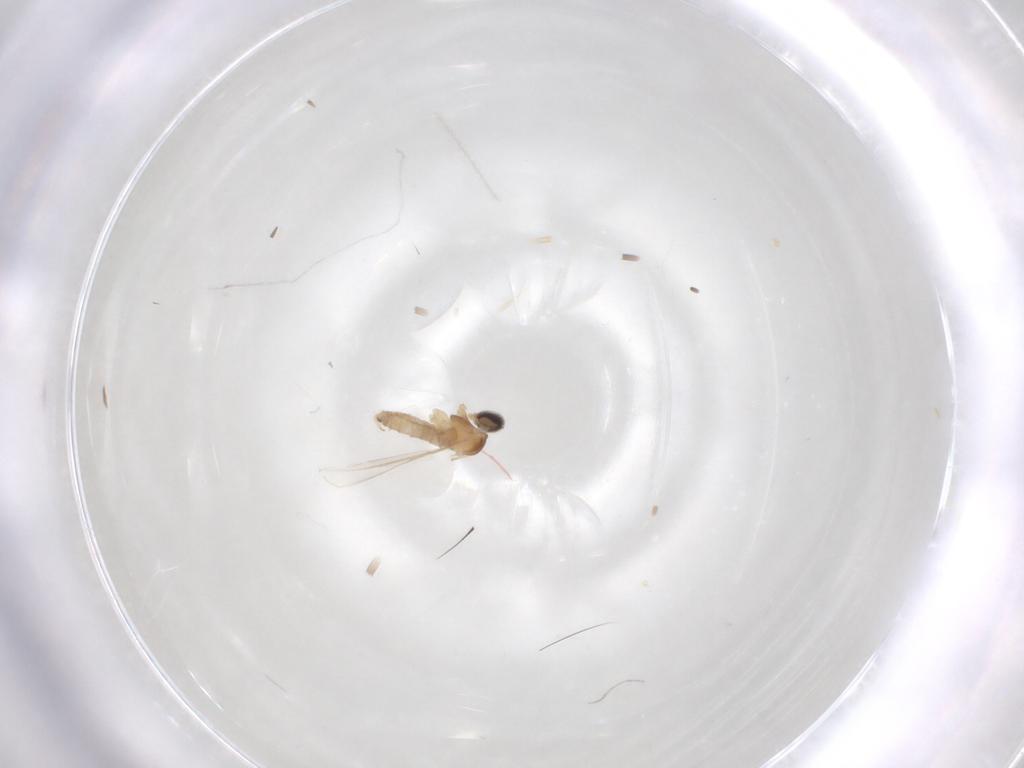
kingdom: Animalia
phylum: Arthropoda
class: Insecta
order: Diptera
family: Cecidomyiidae
